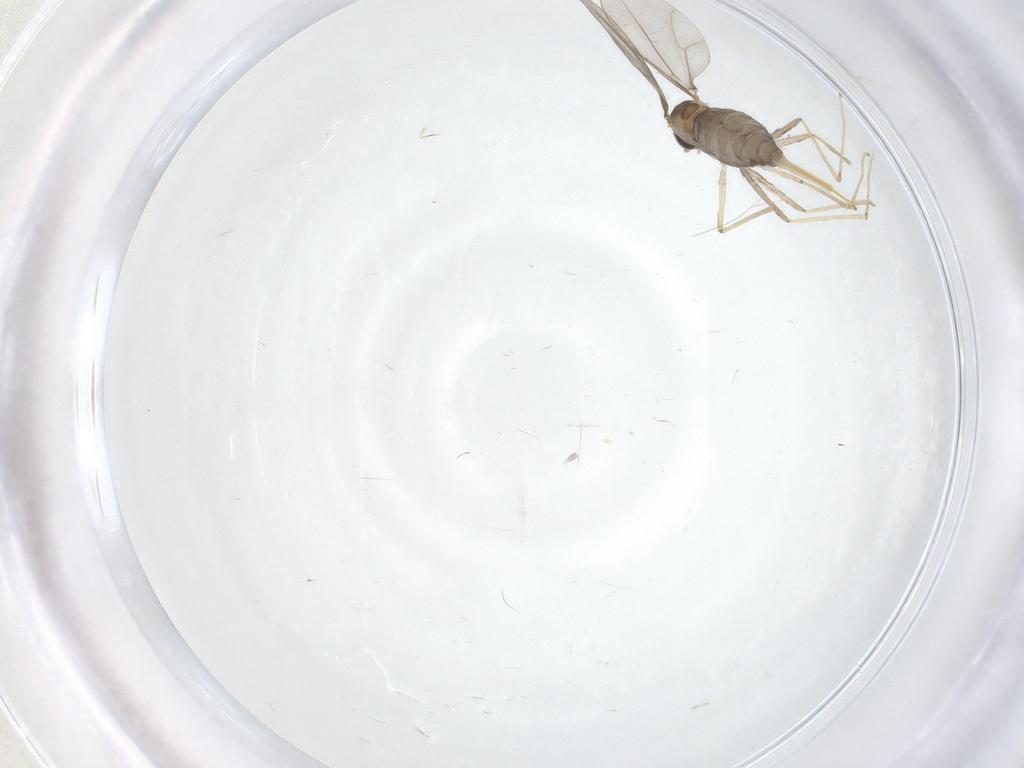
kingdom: Animalia
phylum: Arthropoda
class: Insecta
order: Diptera
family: Cecidomyiidae
